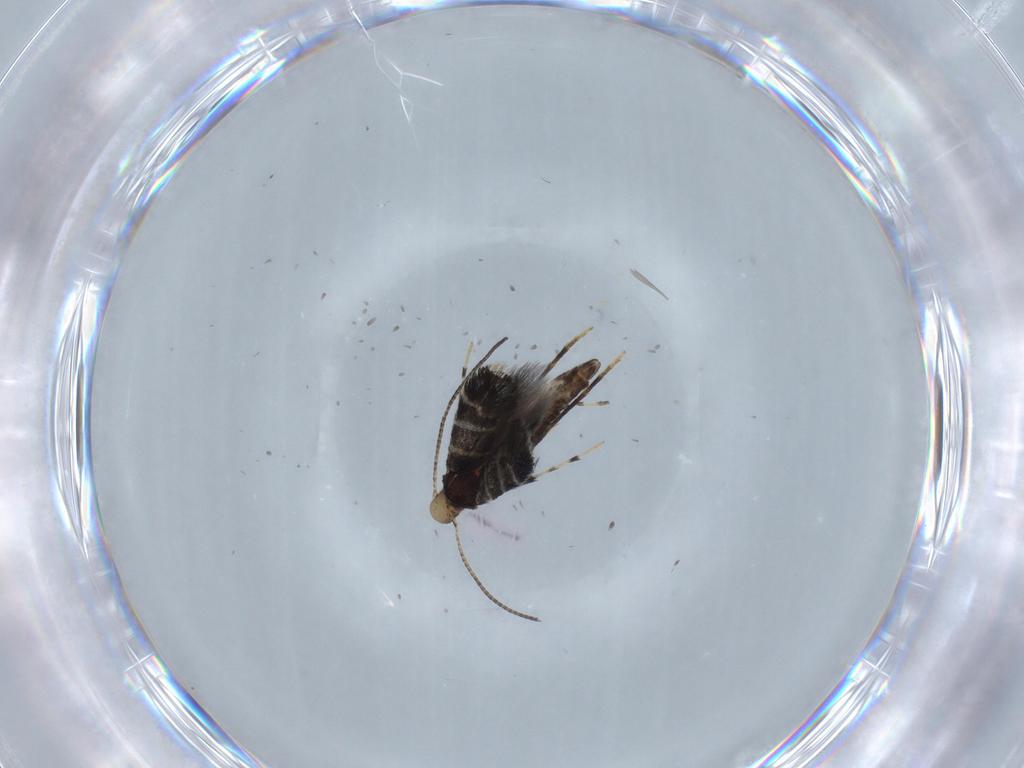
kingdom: Animalia
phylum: Arthropoda
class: Insecta
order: Lepidoptera
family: Gracillariidae
